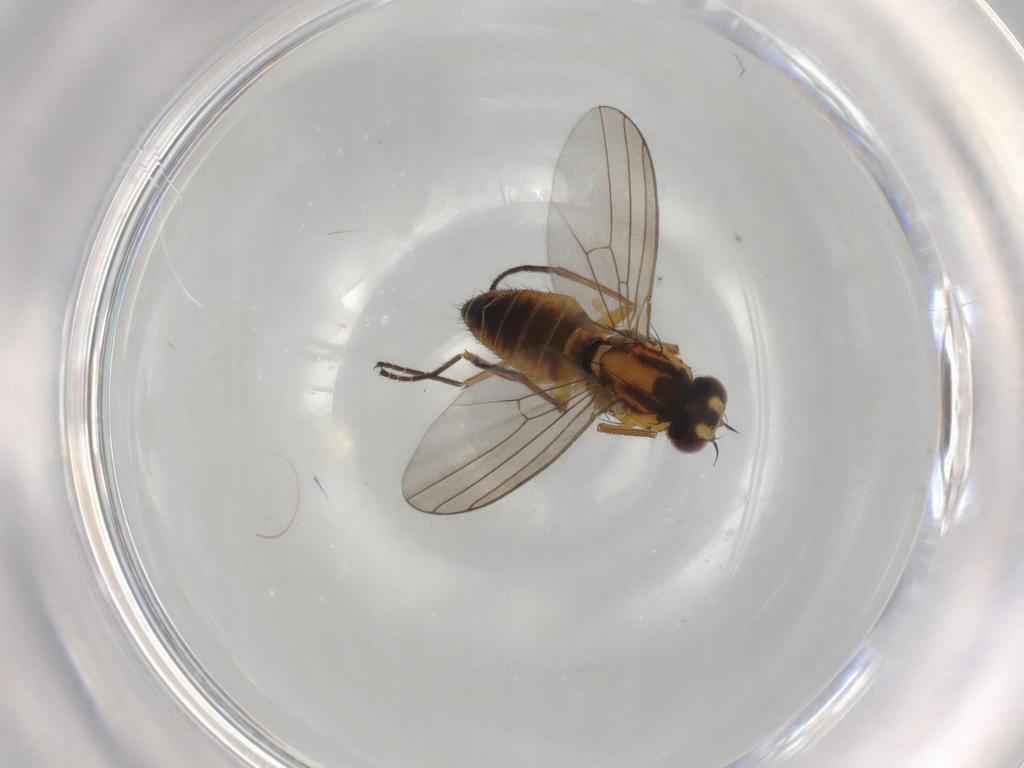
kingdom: Animalia
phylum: Arthropoda
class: Insecta
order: Diptera
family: Agromyzidae
